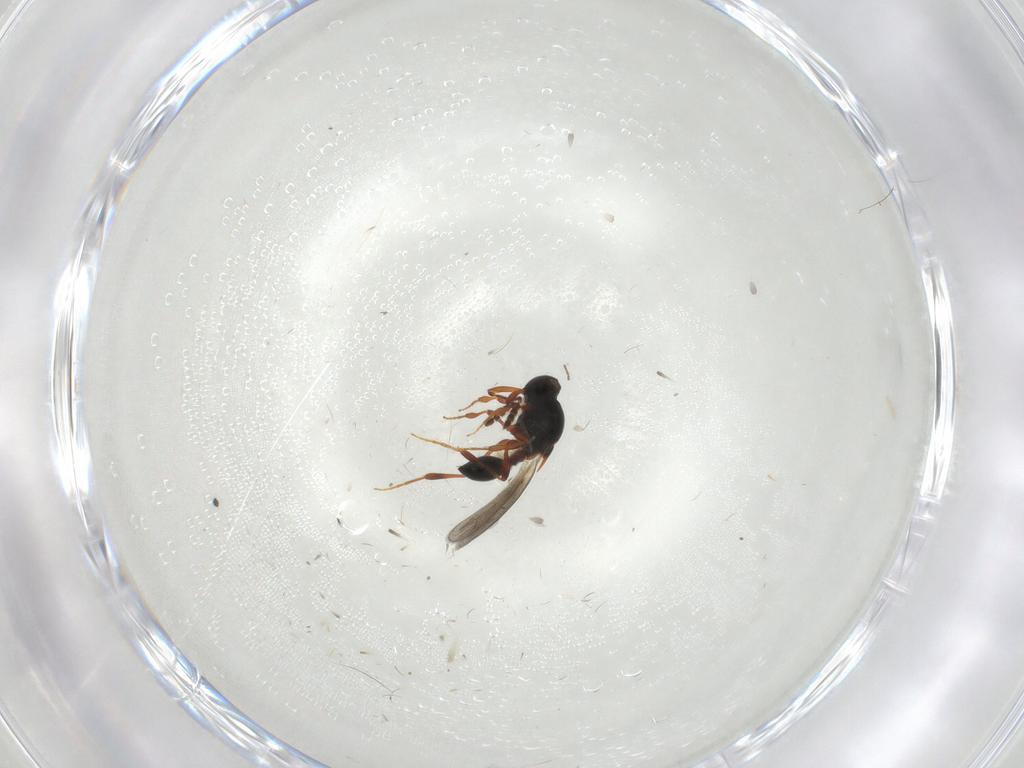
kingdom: Animalia
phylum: Arthropoda
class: Insecta
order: Hymenoptera
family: Platygastridae
